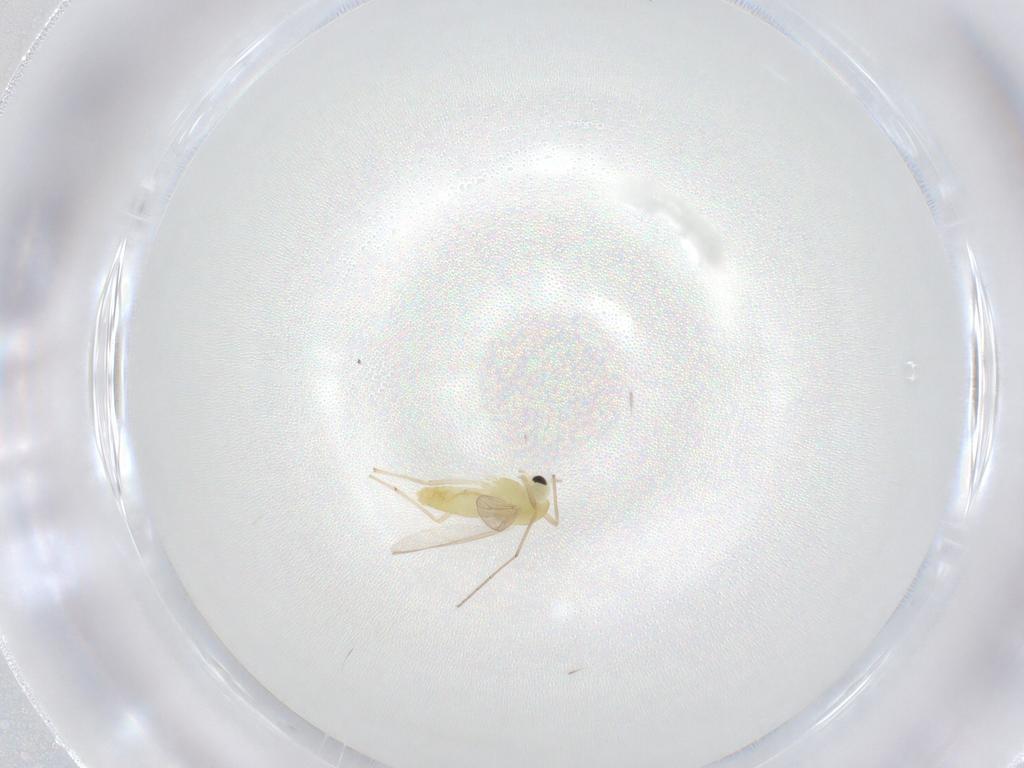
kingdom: Animalia
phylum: Arthropoda
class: Insecta
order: Diptera
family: Chironomidae
